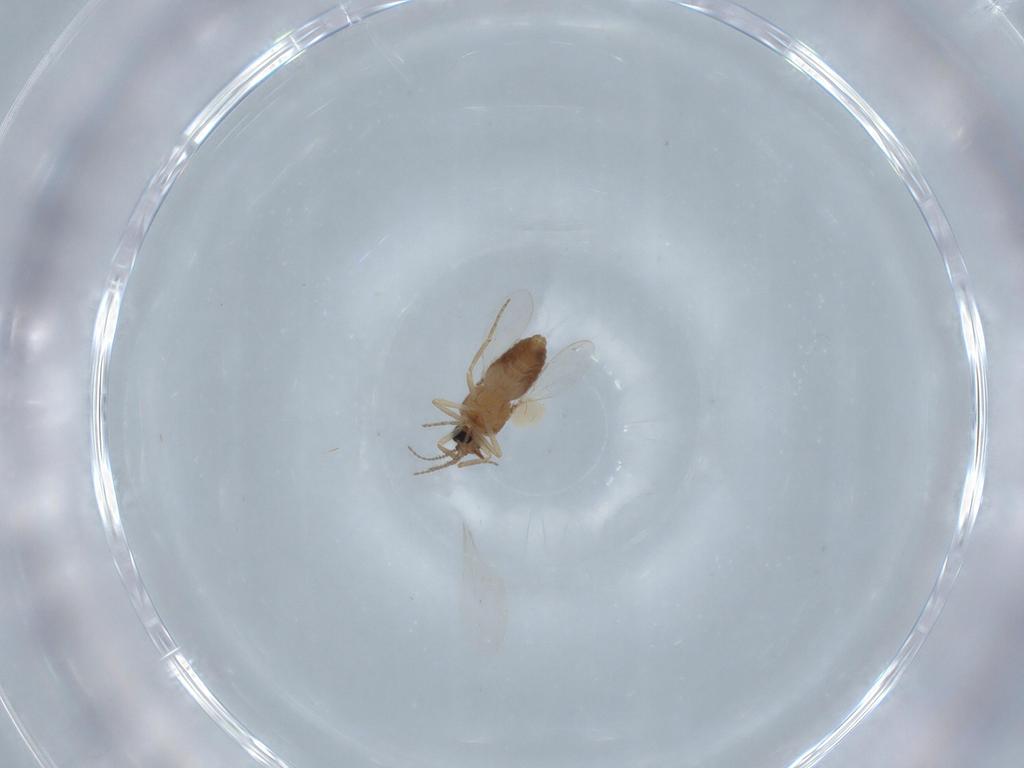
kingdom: Animalia
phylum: Arthropoda
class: Insecta
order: Diptera
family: Ceratopogonidae
